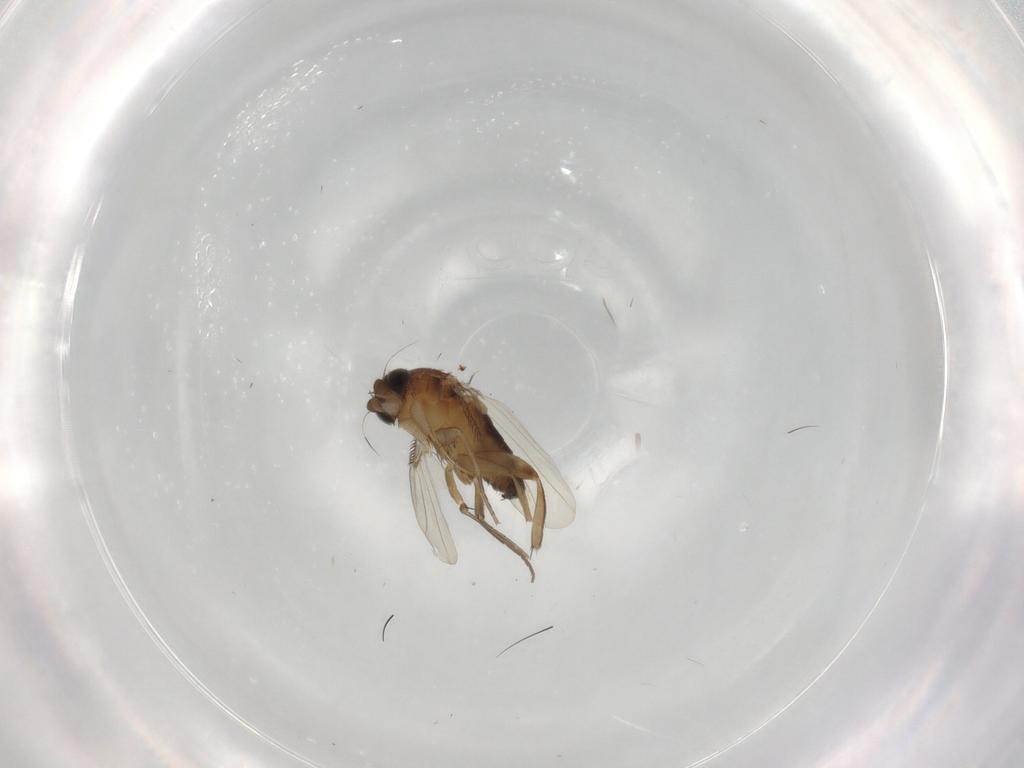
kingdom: Animalia
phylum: Arthropoda
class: Insecta
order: Diptera
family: Phoridae
